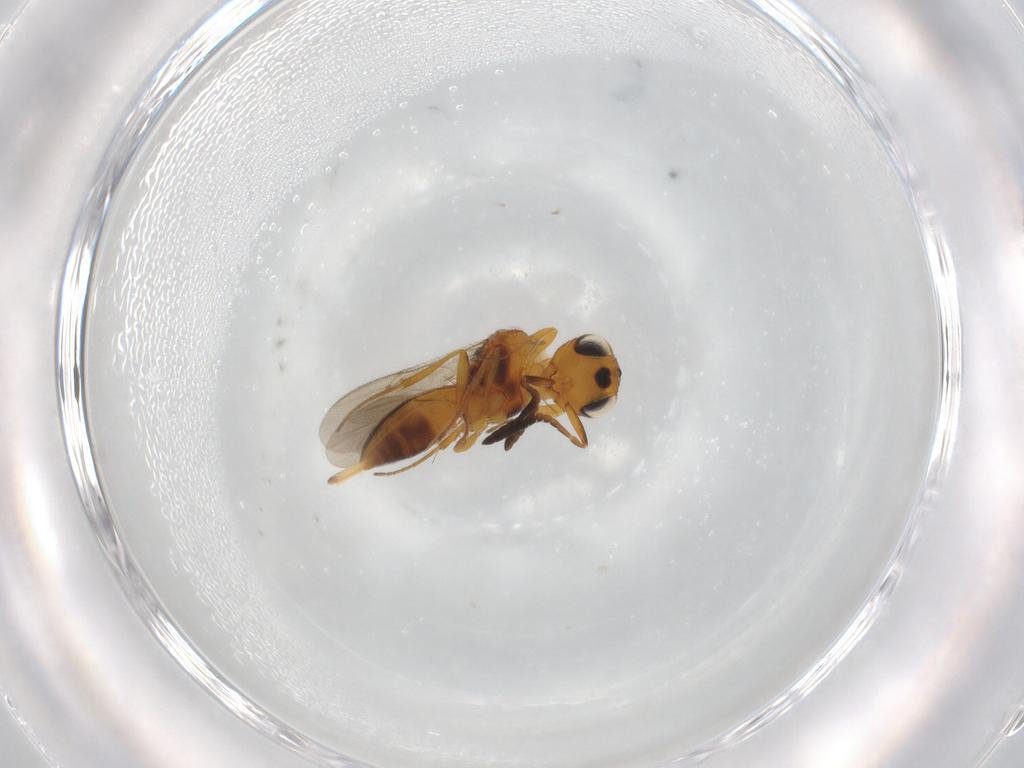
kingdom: Animalia
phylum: Arthropoda
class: Insecta
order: Hymenoptera
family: Scelionidae
